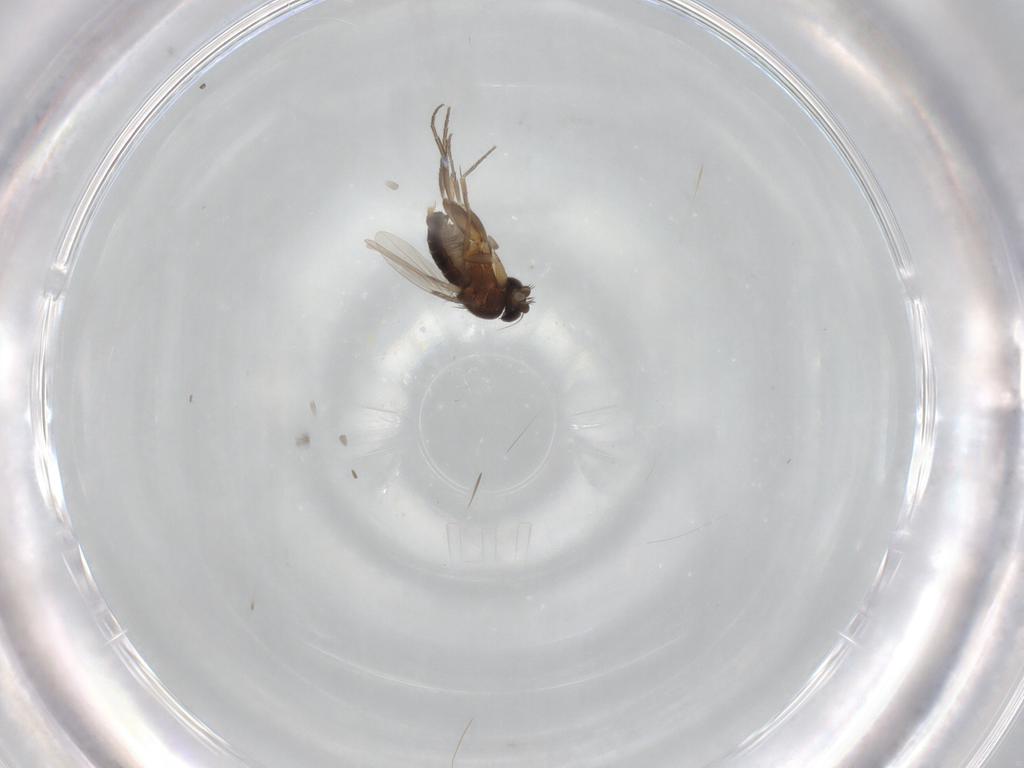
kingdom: Animalia
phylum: Arthropoda
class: Insecta
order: Diptera
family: Phoridae
